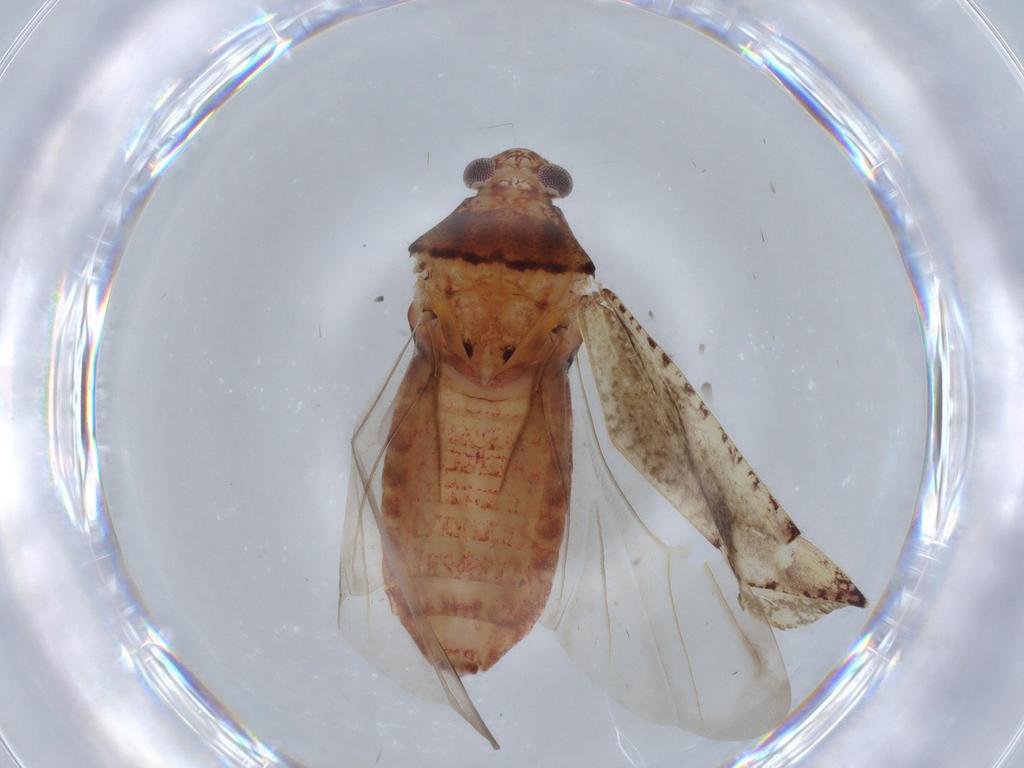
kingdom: Animalia
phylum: Arthropoda
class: Insecta
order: Hemiptera
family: Miridae
